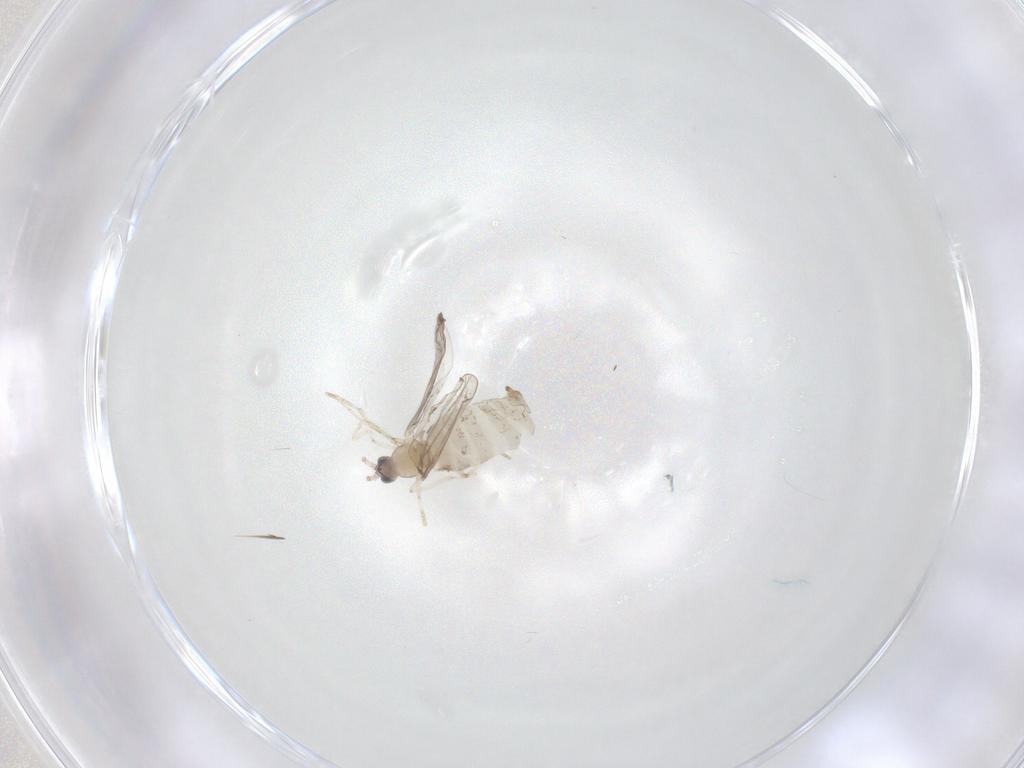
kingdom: Animalia
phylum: Arthropoda
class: Insecta
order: Diptera
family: Cecidomyiidae
